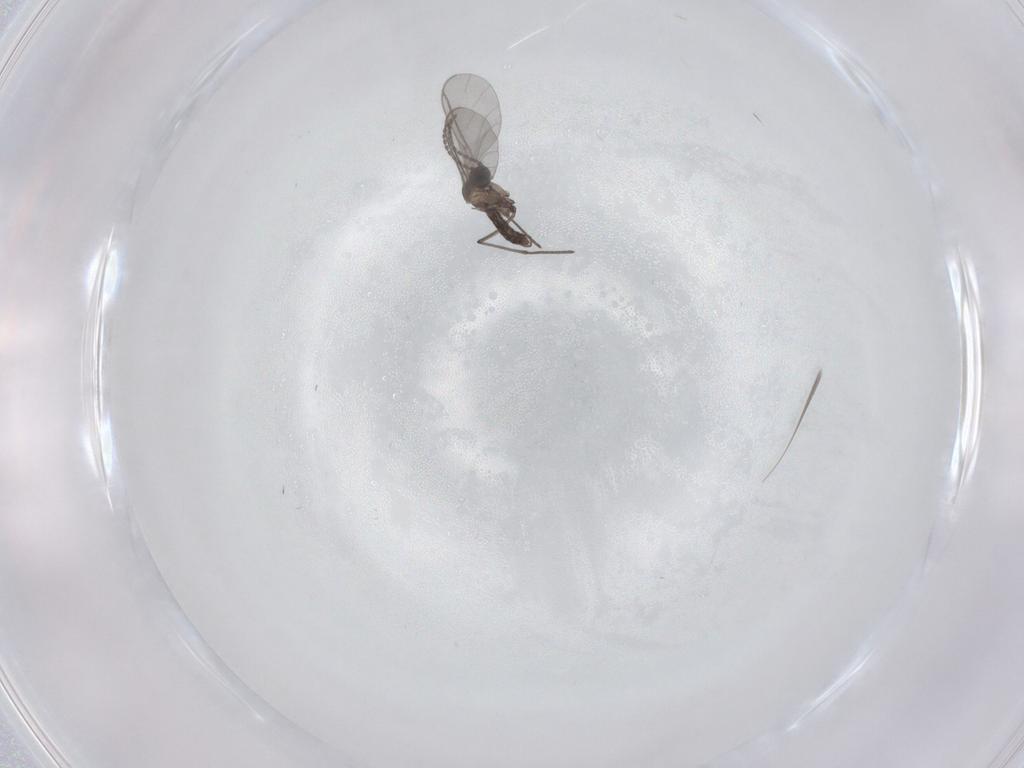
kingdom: Animalia
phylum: Arthropoda
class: Insecta
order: Diptera
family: Sciaridae
